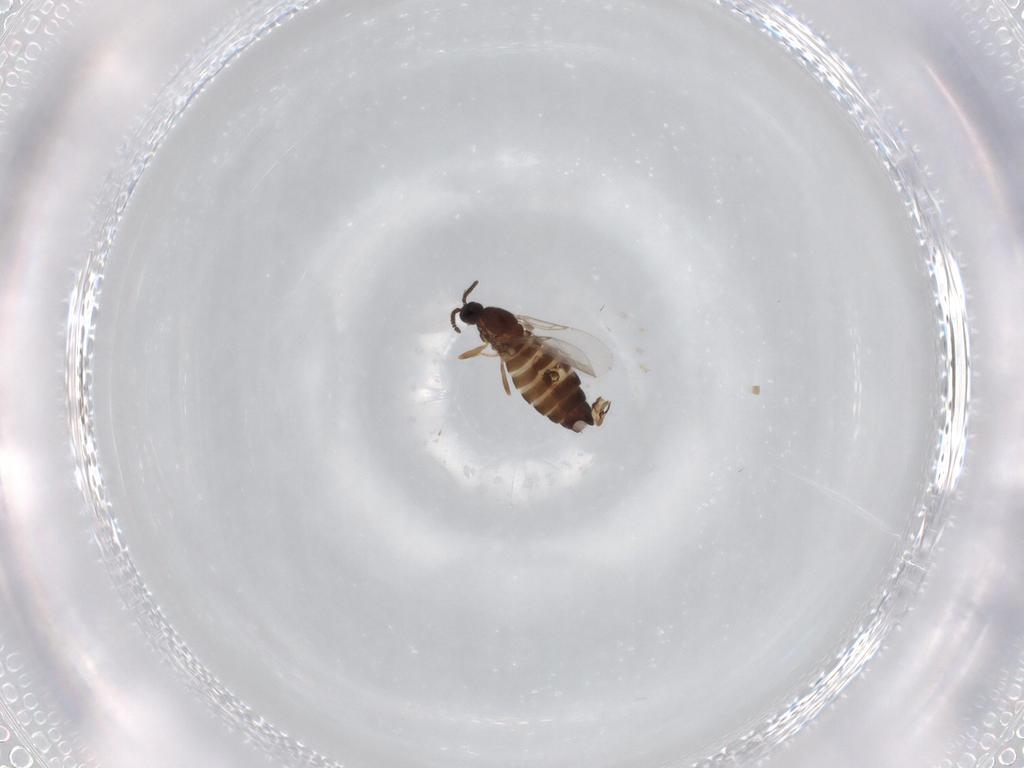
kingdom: Animalia
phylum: Arthropoda
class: Insecta
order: Diptera
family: Scatopsidae
